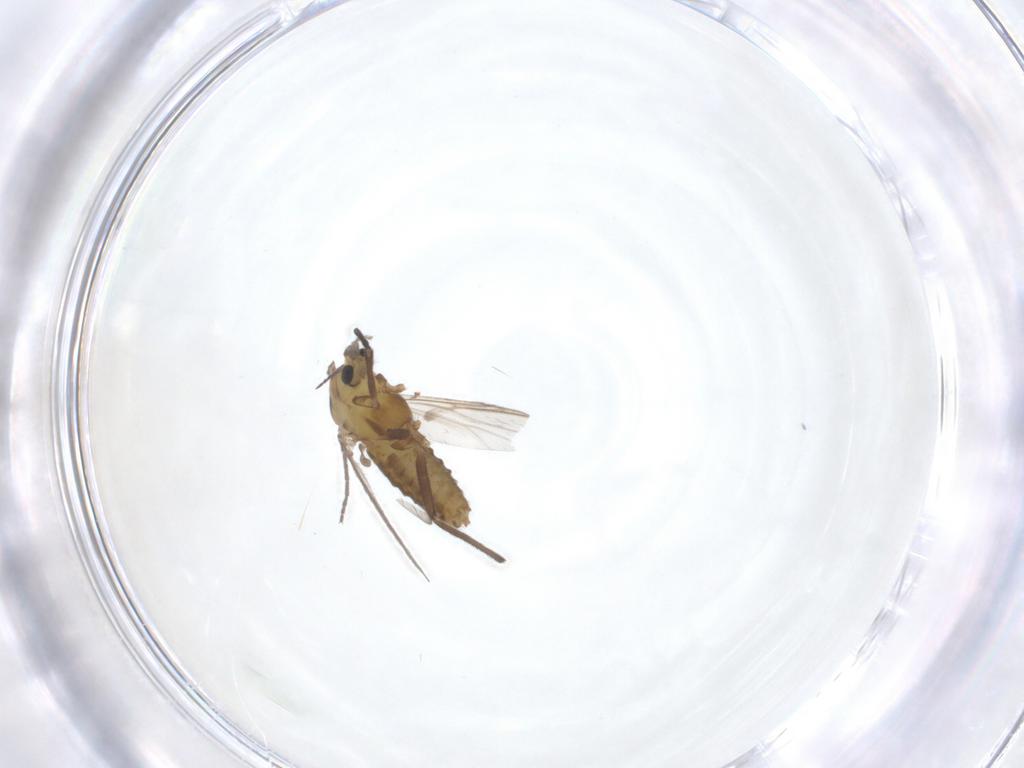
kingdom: Animalia
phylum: Arthropoda
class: Insecta
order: Diptera
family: Chironomidae
